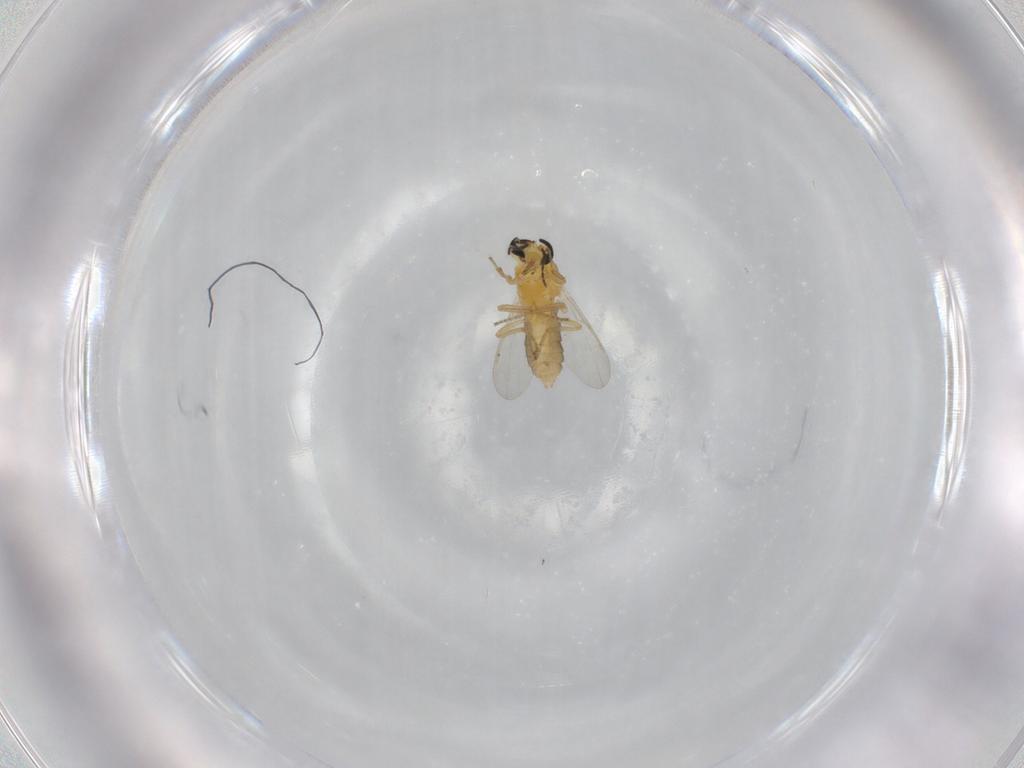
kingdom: Animalia
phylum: Arthropoda
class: Insecta
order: Diptera
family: Ceratopogonidae
